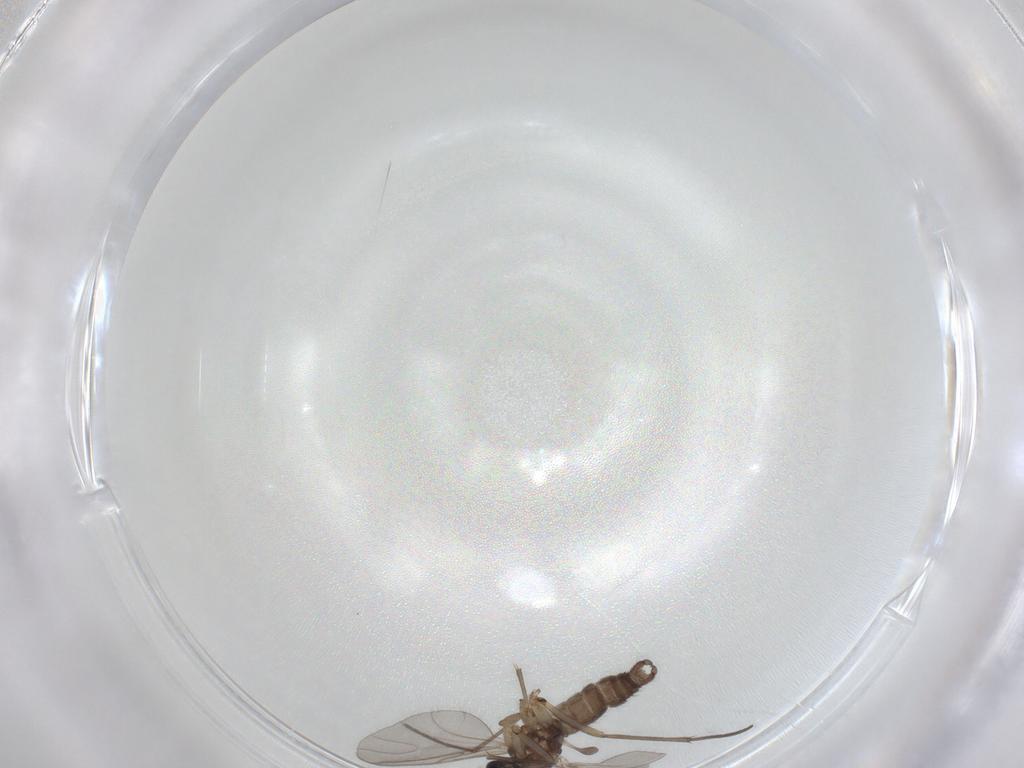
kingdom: Animalia
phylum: Arthropoda
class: Insecta
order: Diptera
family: Sciaridae
